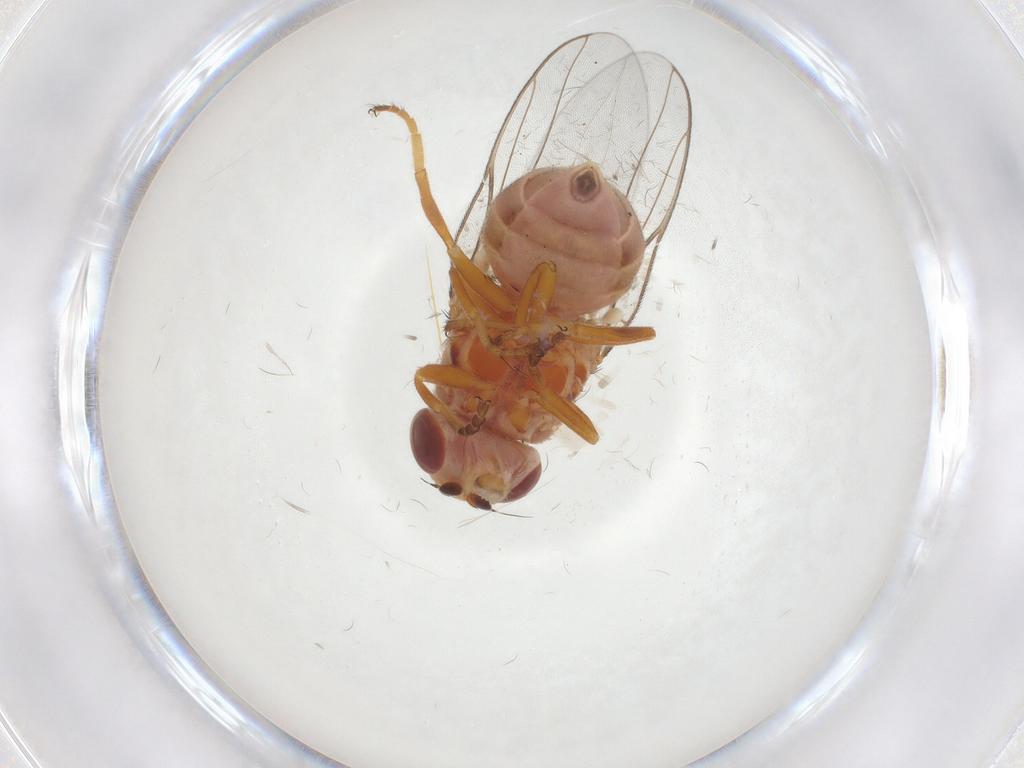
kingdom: Animalia
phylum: Arthropoda
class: Insecta
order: Diptera
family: Chloropidae
